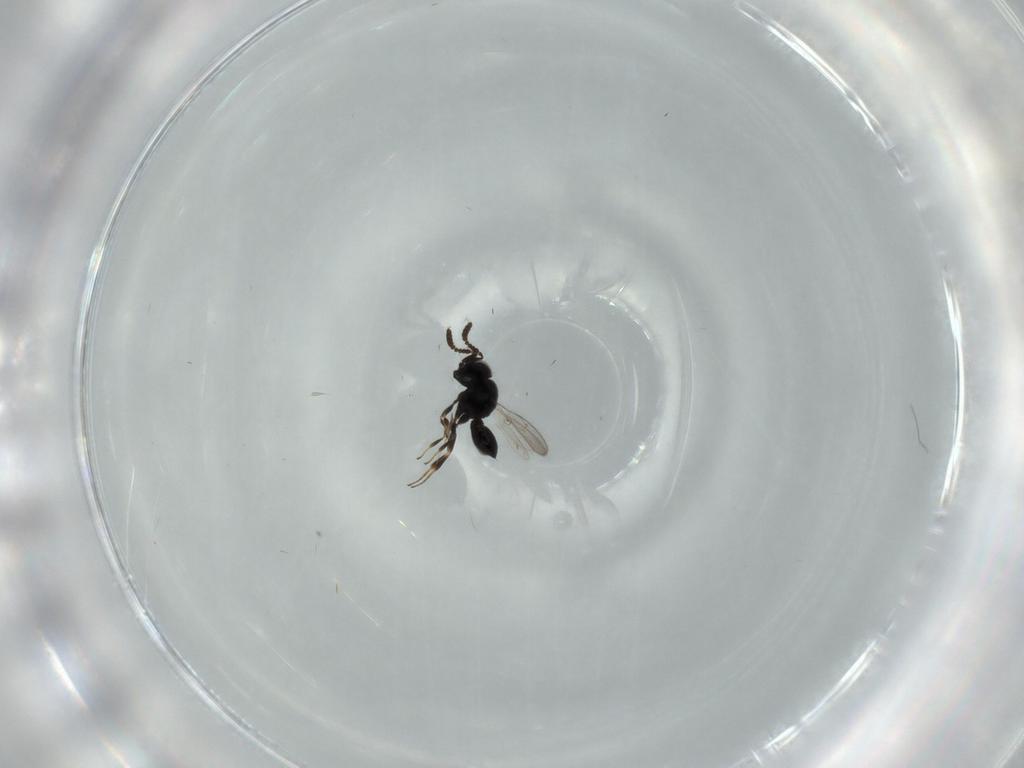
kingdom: Animalia
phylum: Arthropoda
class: Insecta
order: Hymenoptera
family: Scelionidae
